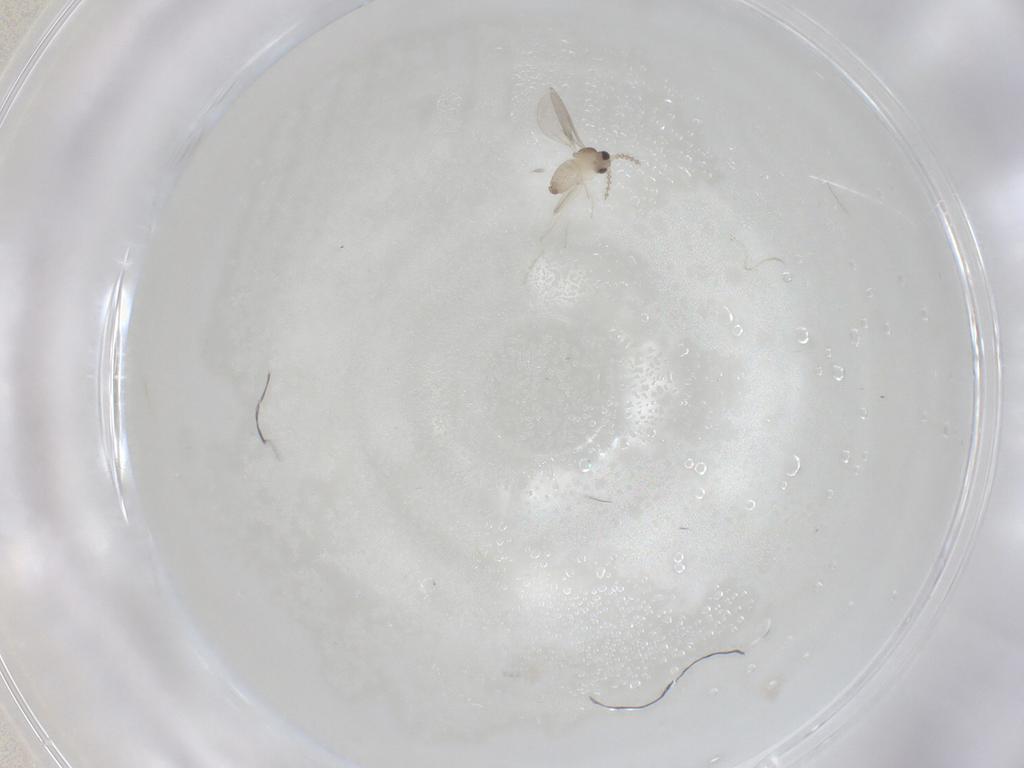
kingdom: Animalia
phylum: Arthropoda
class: Insecta
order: Diptera
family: Cecidomyiidae
